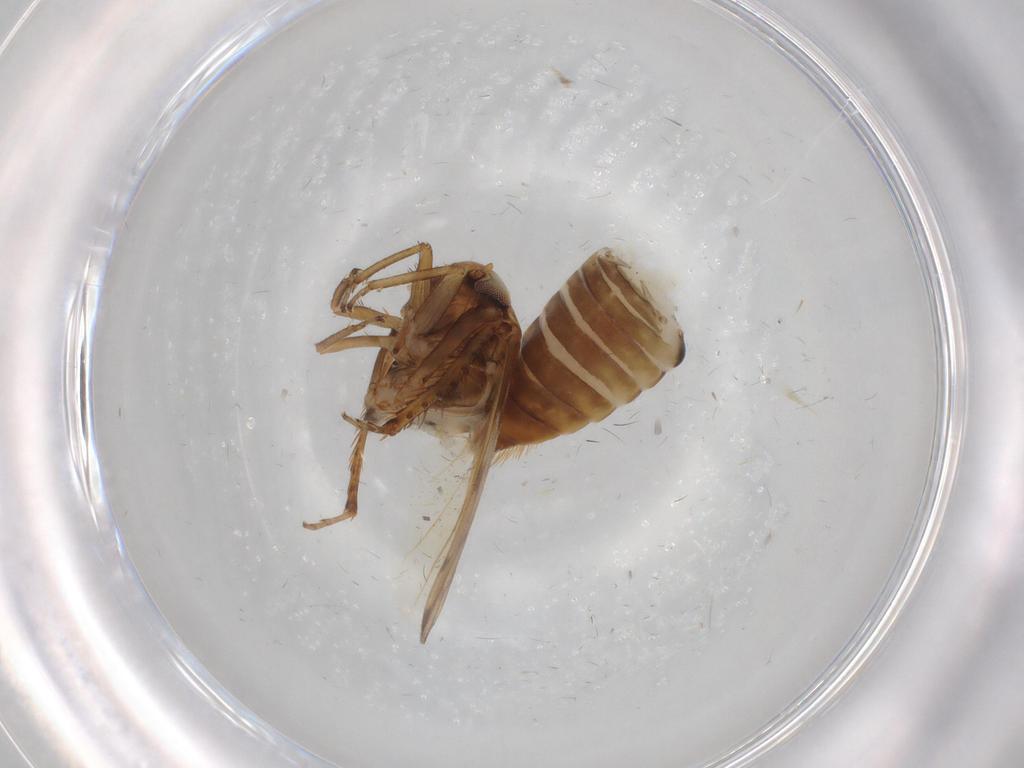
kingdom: Animalia
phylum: Arthropoda
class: Insecta
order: Hemiptera
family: Cicadellidae
